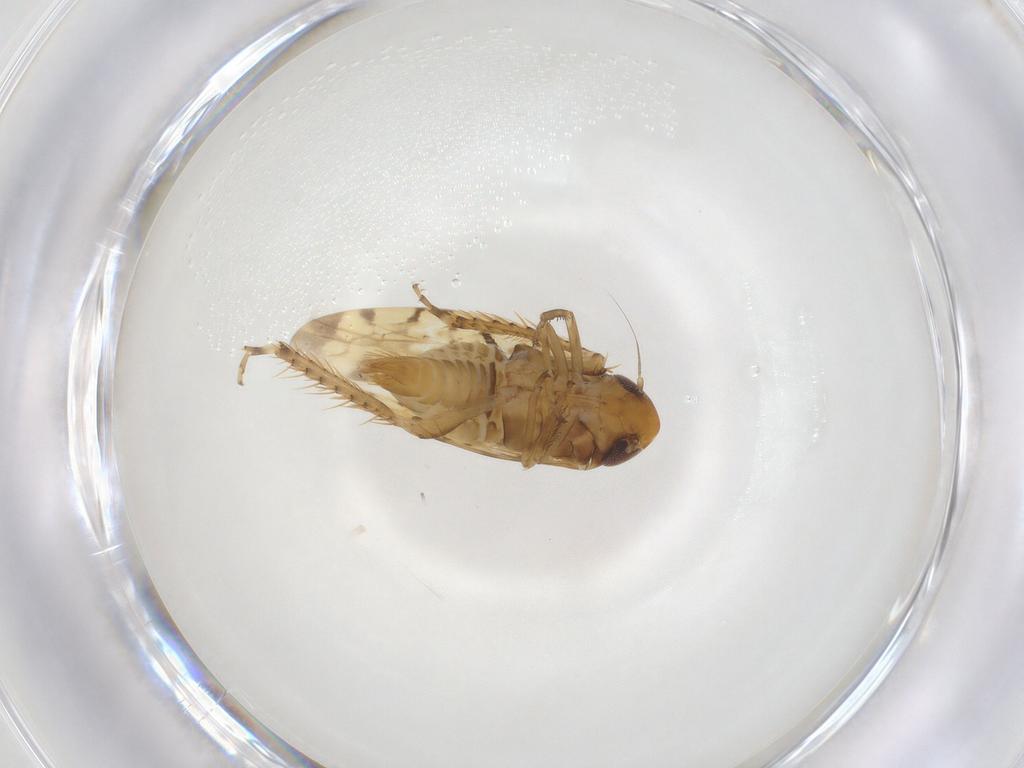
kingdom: Animalia
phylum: Arthropoda
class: Insecta
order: Hemiptera
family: Cicadellidae
